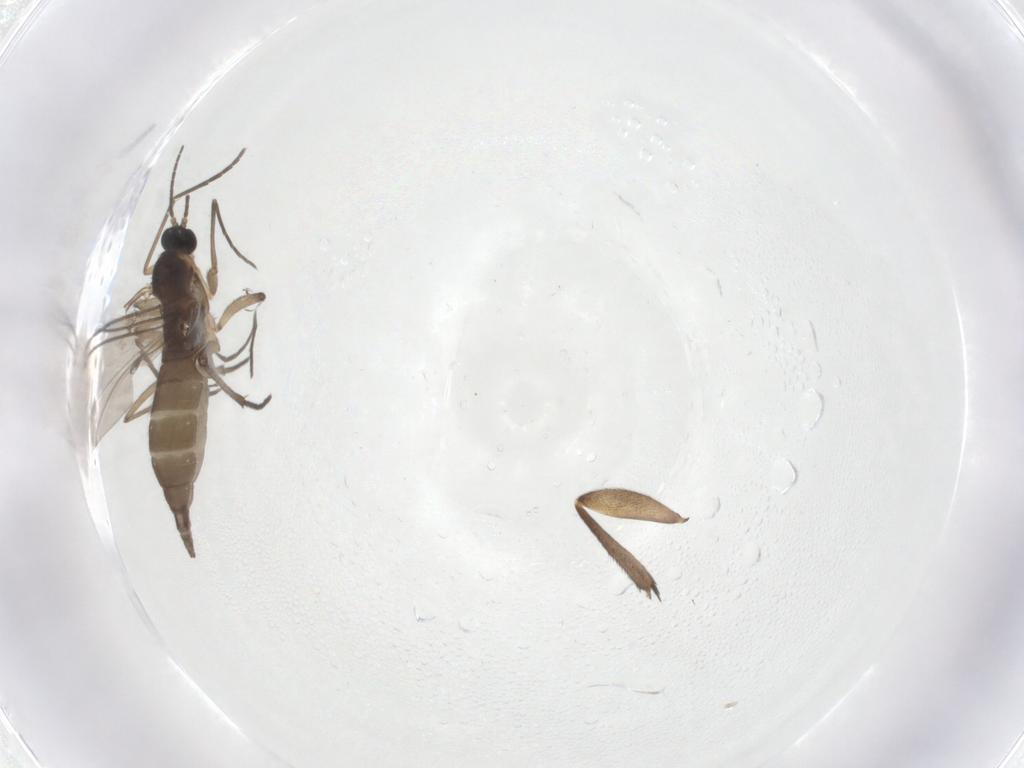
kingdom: Animalia
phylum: Arthropoda
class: Insecta
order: Diptera
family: Sciaridae
